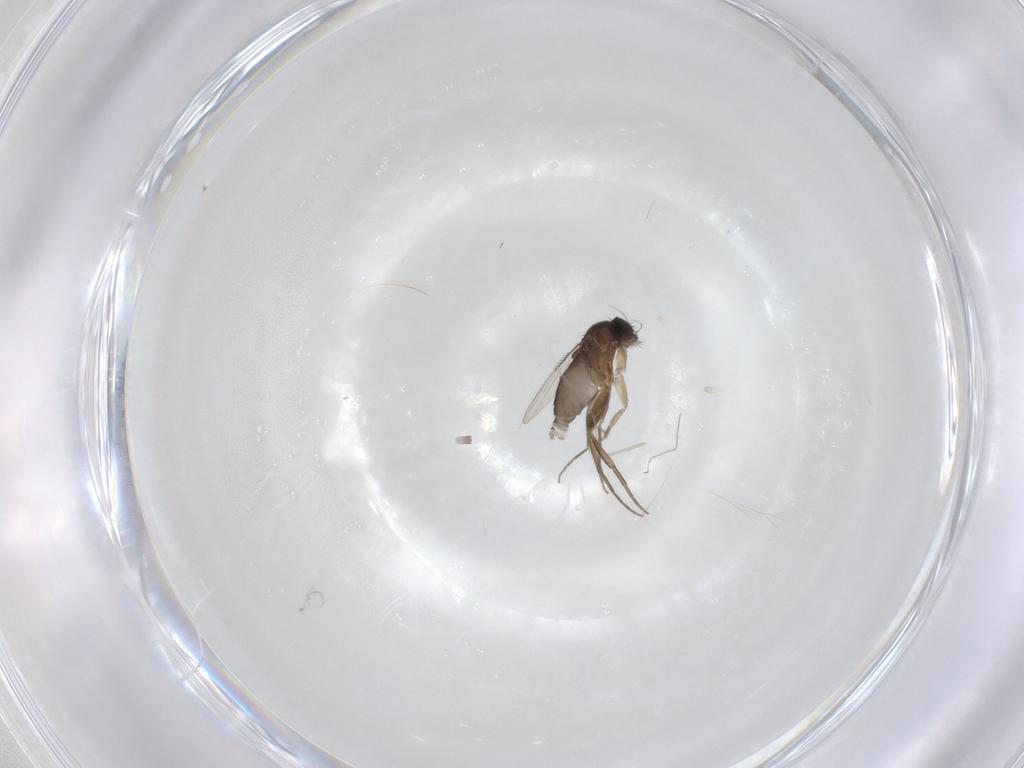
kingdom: Animalia
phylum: Arthropoda
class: Insecta
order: Diptera
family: Phoridae
